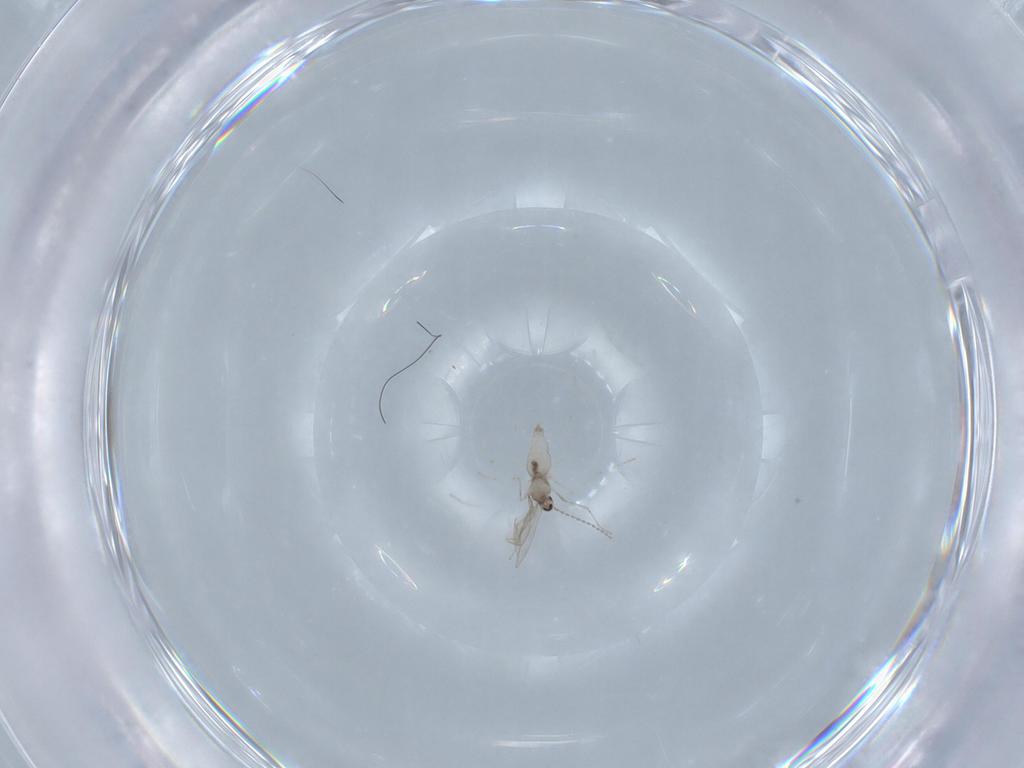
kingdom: Animalia
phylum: Arthropoda
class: Insecta
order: Diptera
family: Cecidomyiidae
